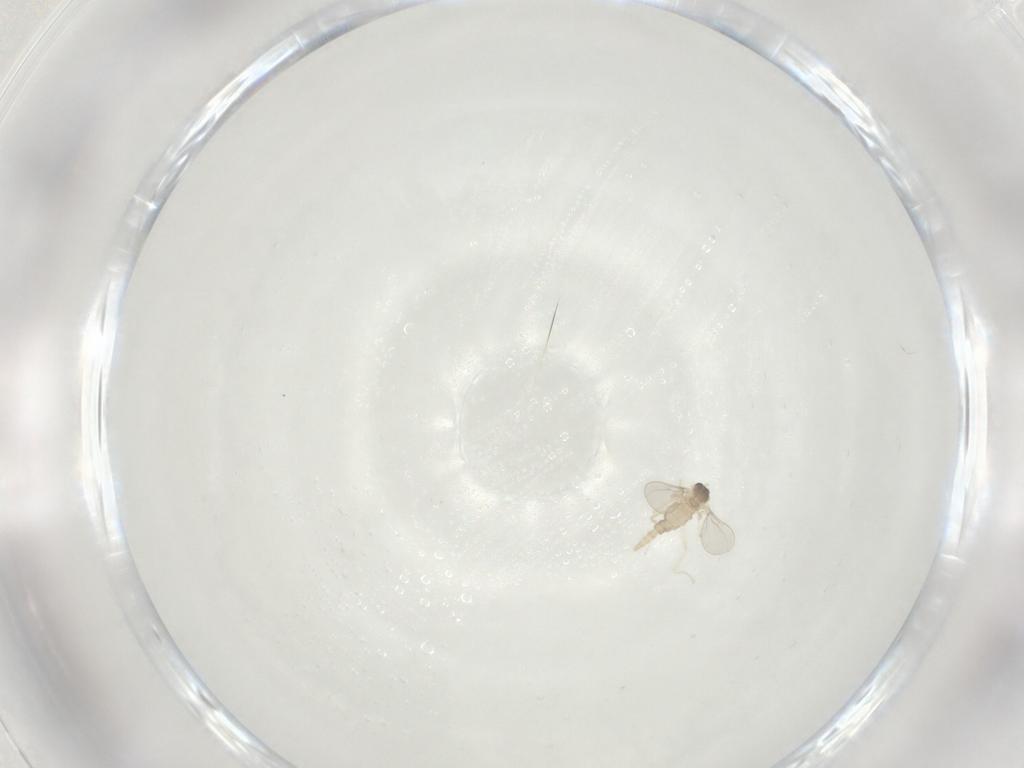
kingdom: Animalia
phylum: Arthropoda
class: Insecta
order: Diptera
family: Cecidomyiidae
